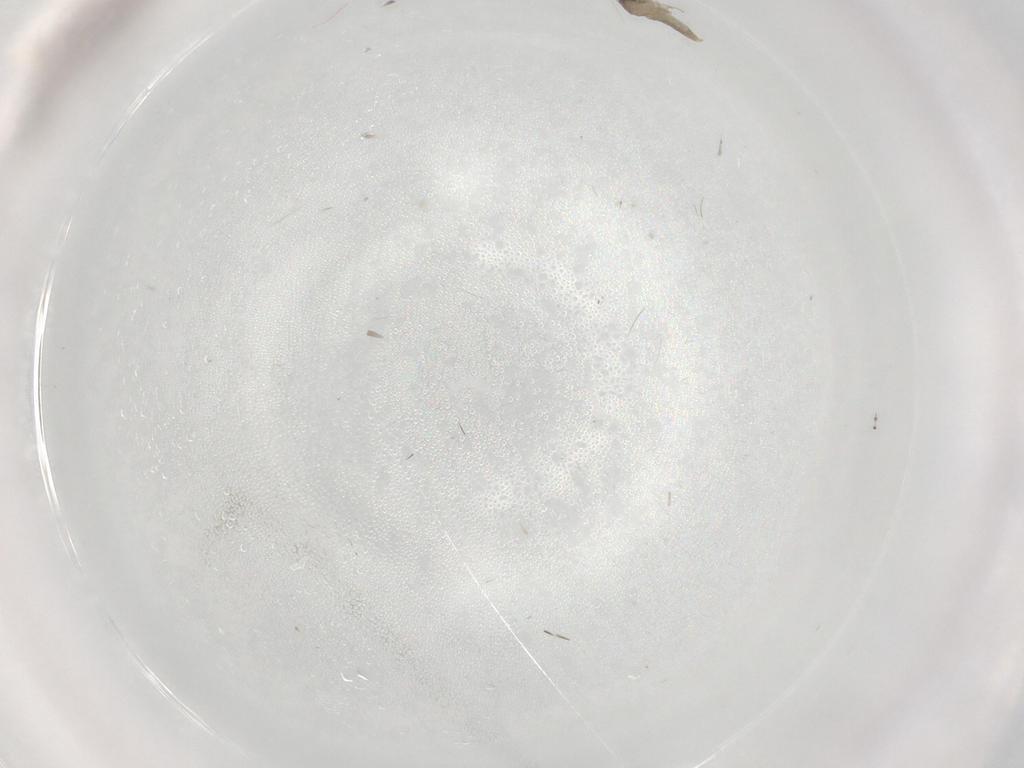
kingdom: Animalia
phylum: Arthropoda
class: Insecta
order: Diptera
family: Cecidomyiidae
